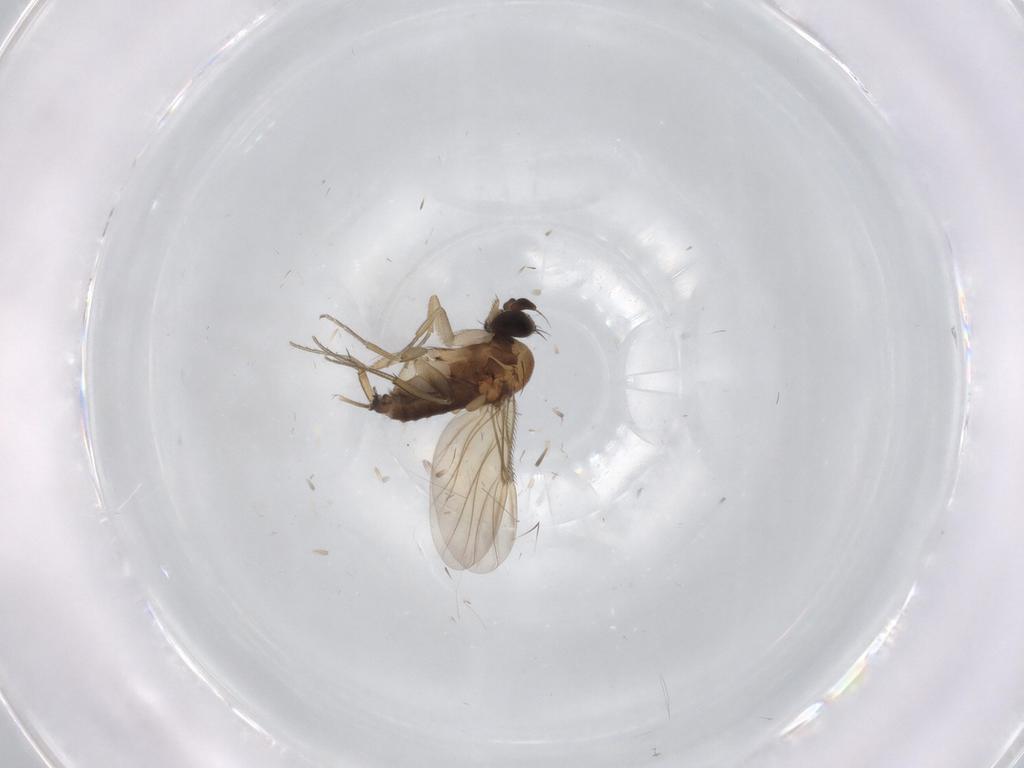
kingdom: Animalia
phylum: Arthropoda
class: Insecta
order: Diptera
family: Phoridae
